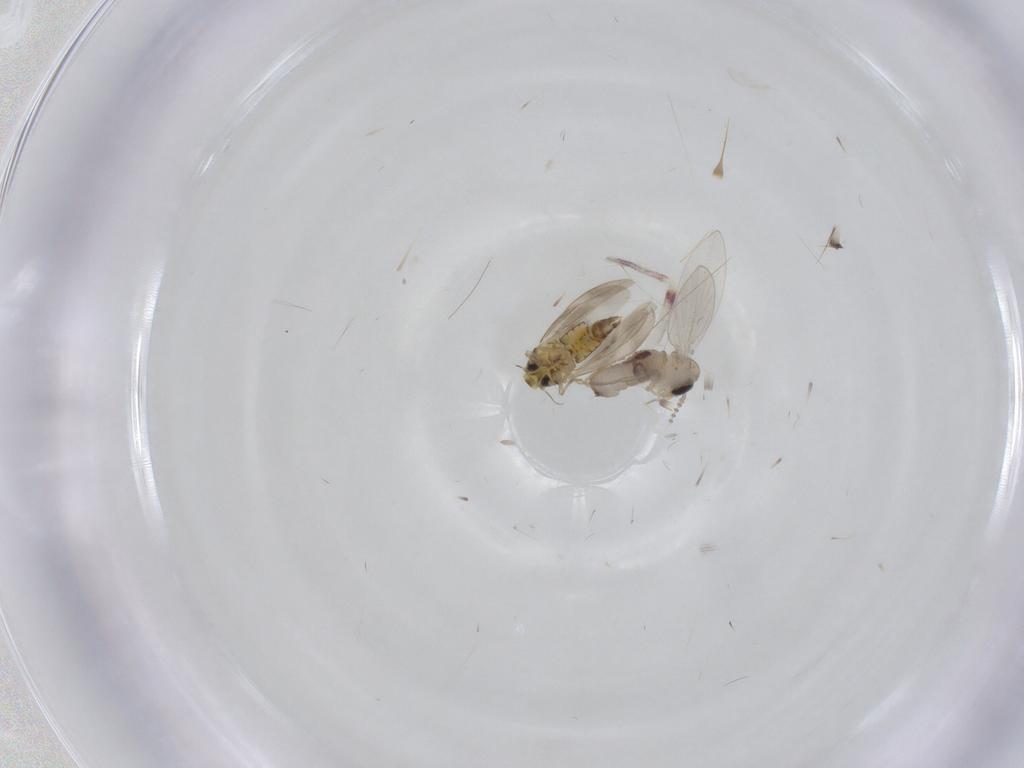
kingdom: Animalia
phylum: Arthropoda
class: Insecta
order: Diptera
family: Psychodidae
